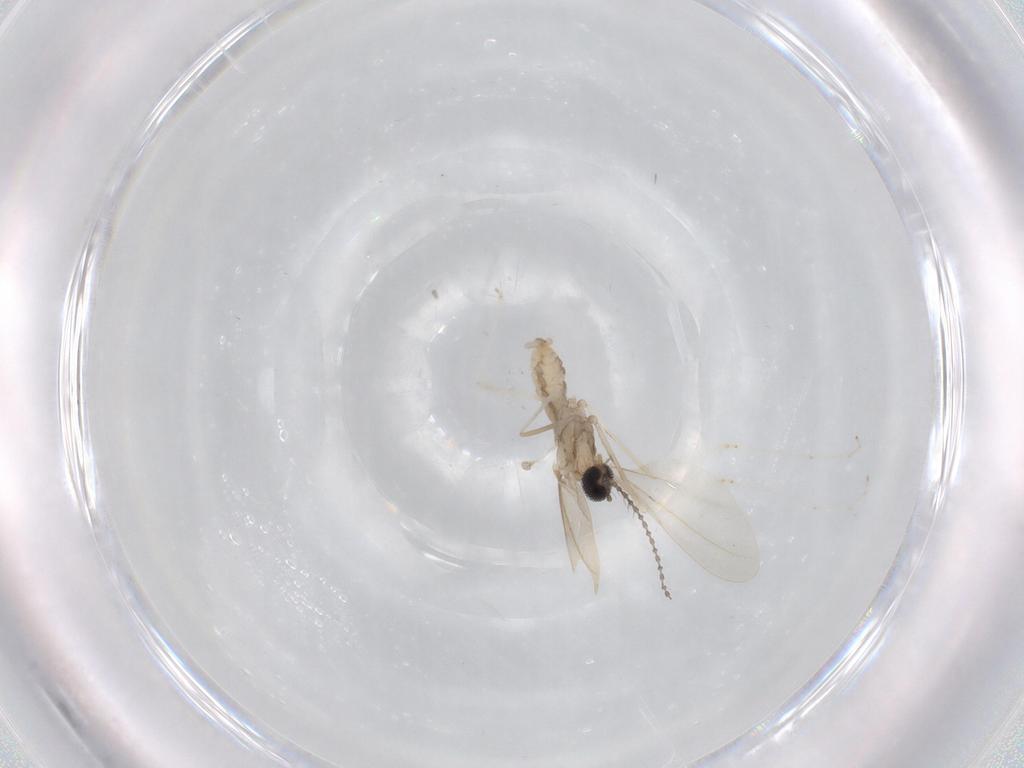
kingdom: Animalia
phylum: Arthropoda
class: Insecta
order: Diptera
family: Cecidomyiidae
